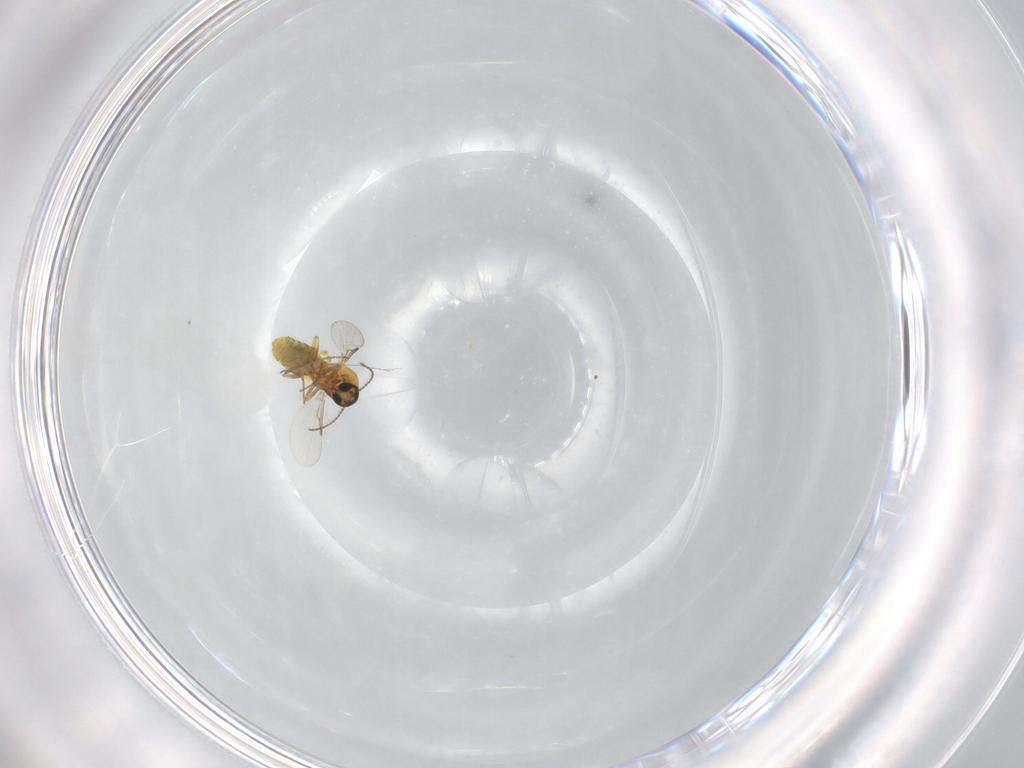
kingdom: Animalia
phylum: Arthropoda
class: Insecta
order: Diptera
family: Ceratopogonidae
